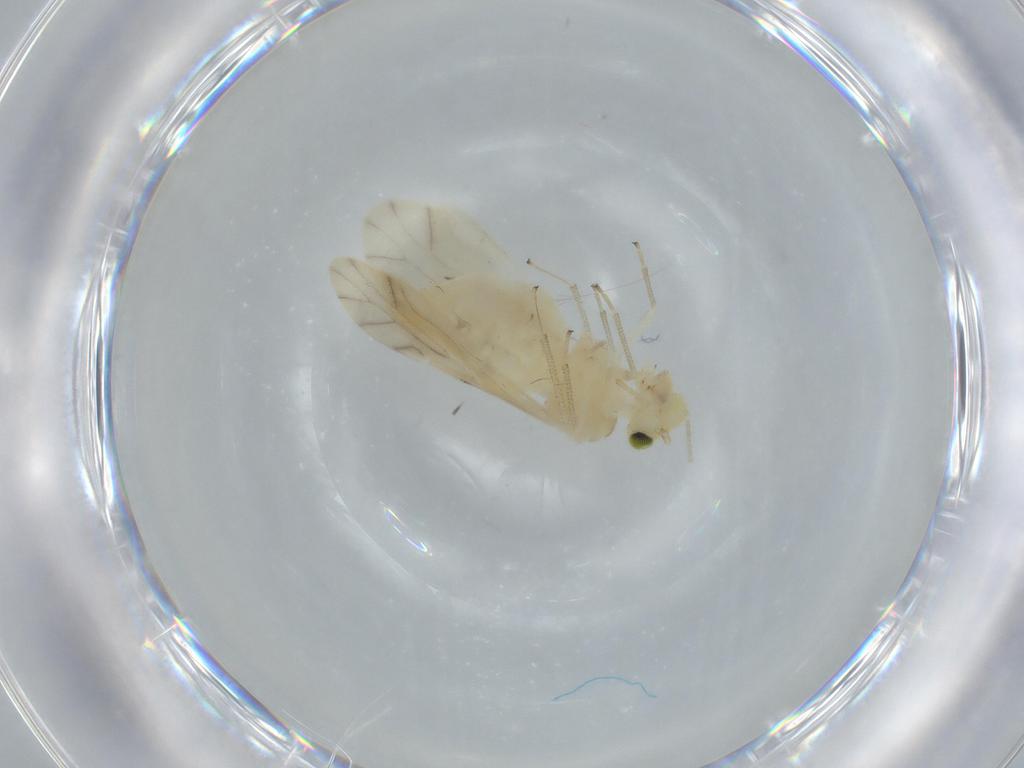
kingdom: Animalia
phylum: Arthropoda
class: Insecta
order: Psocodea
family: Caeciliusidae
